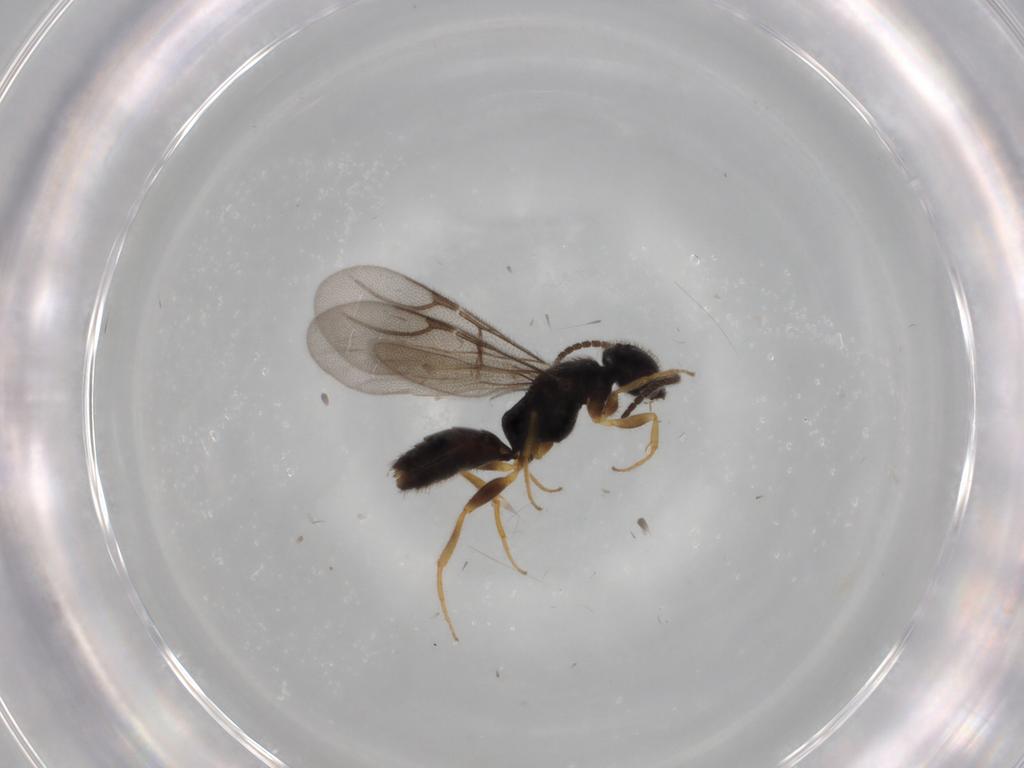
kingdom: Animalia
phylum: Arthropoda
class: Insecta
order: Hymenoptera
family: Bethylidae
